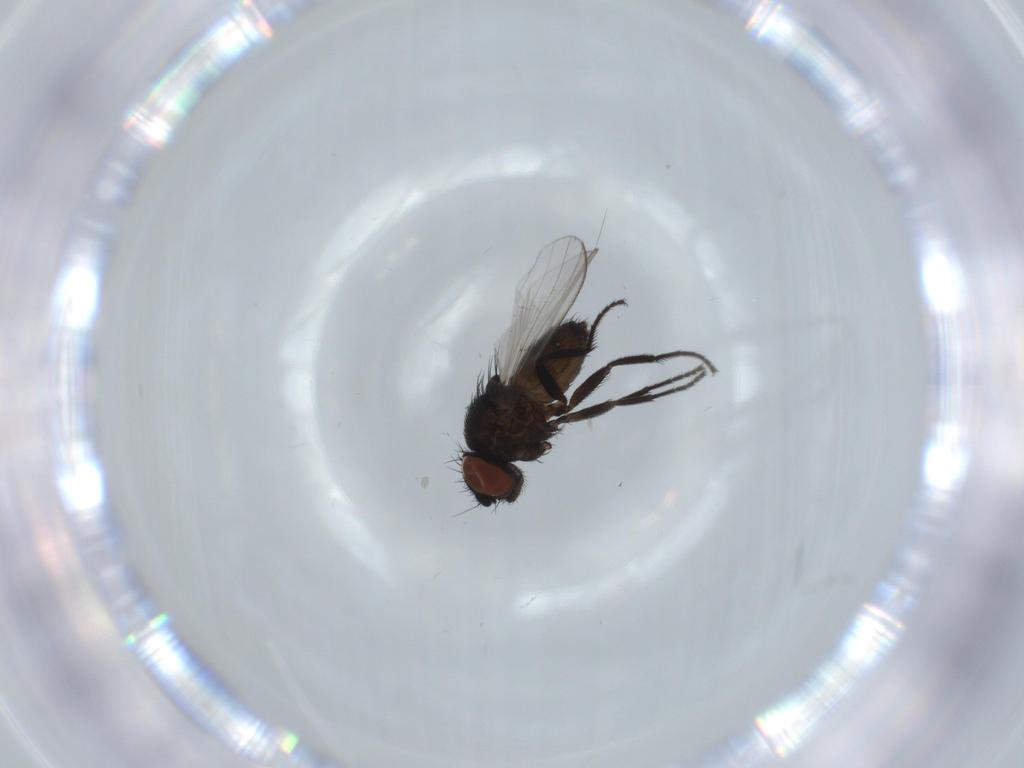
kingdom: Animalia
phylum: Arthropoda
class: Insecta
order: Diptera
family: Milichiidae
